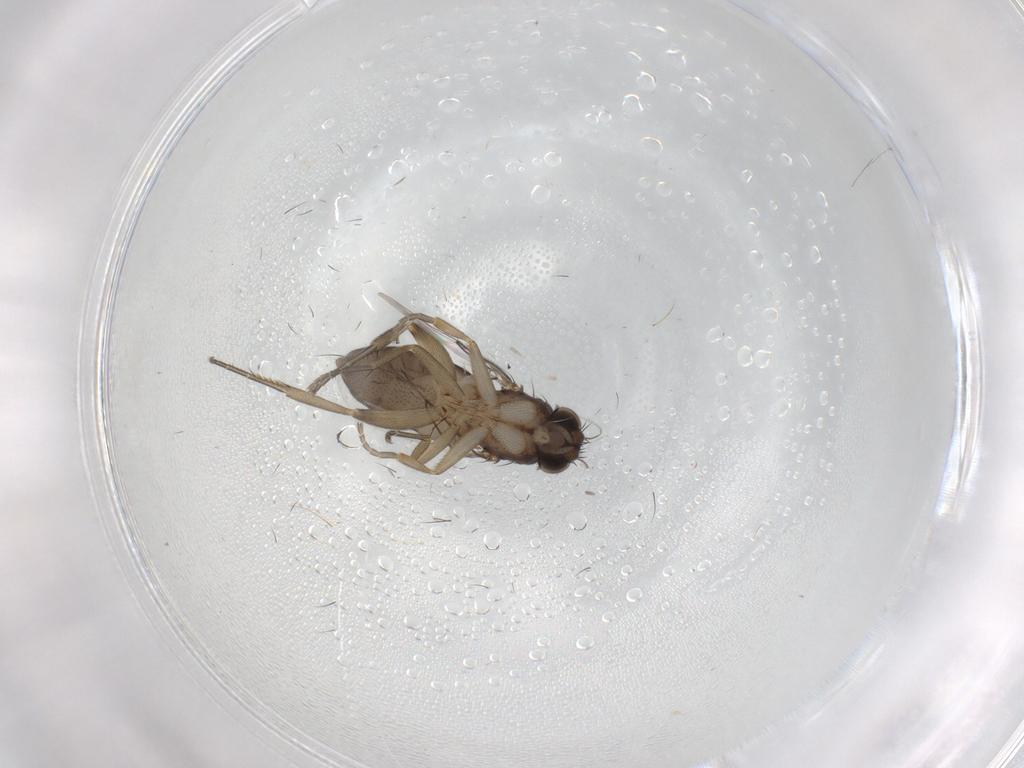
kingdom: Animalia
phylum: Arthropoda
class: Insecta
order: Diptera
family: Phoridae
